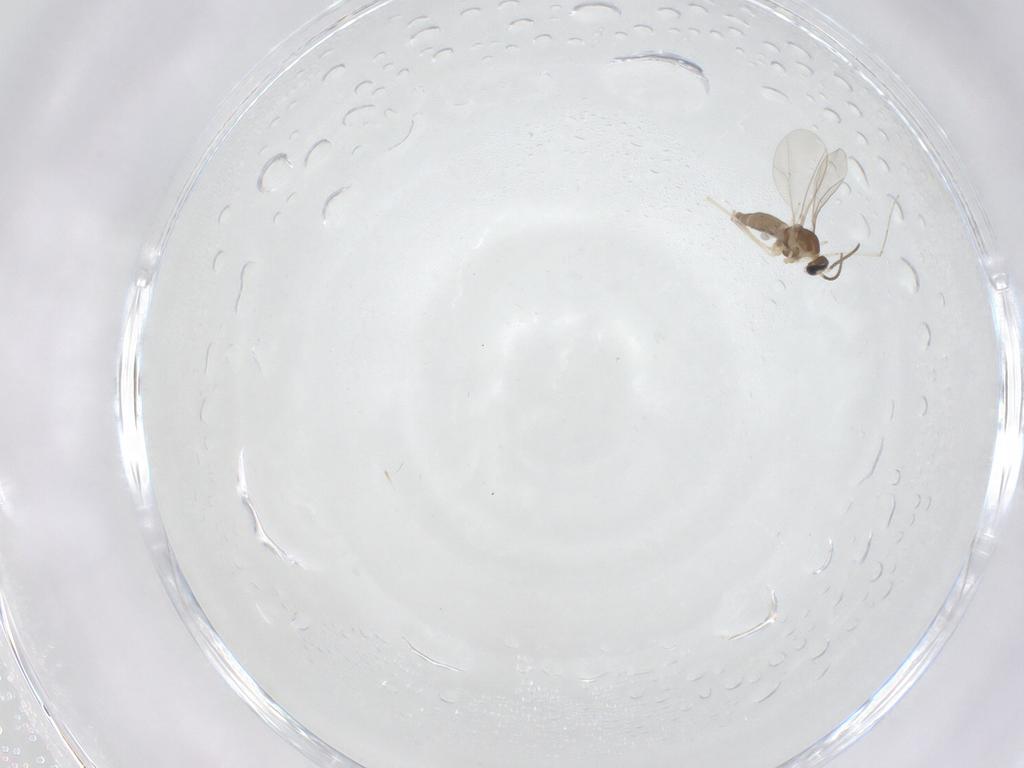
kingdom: Animalia
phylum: Arthropoda
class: Insecta
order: Diptera
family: Cecidomyiidae
